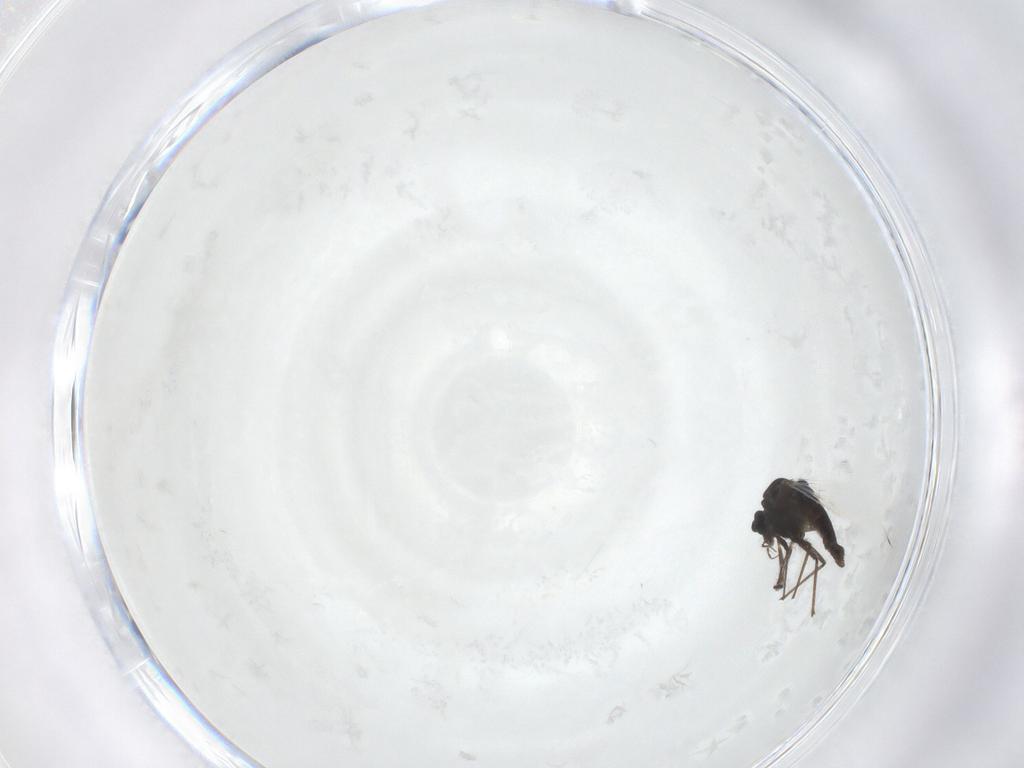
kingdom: Animalia
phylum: Arthropoda
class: Insecta
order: Diptera
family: Chironomidae
